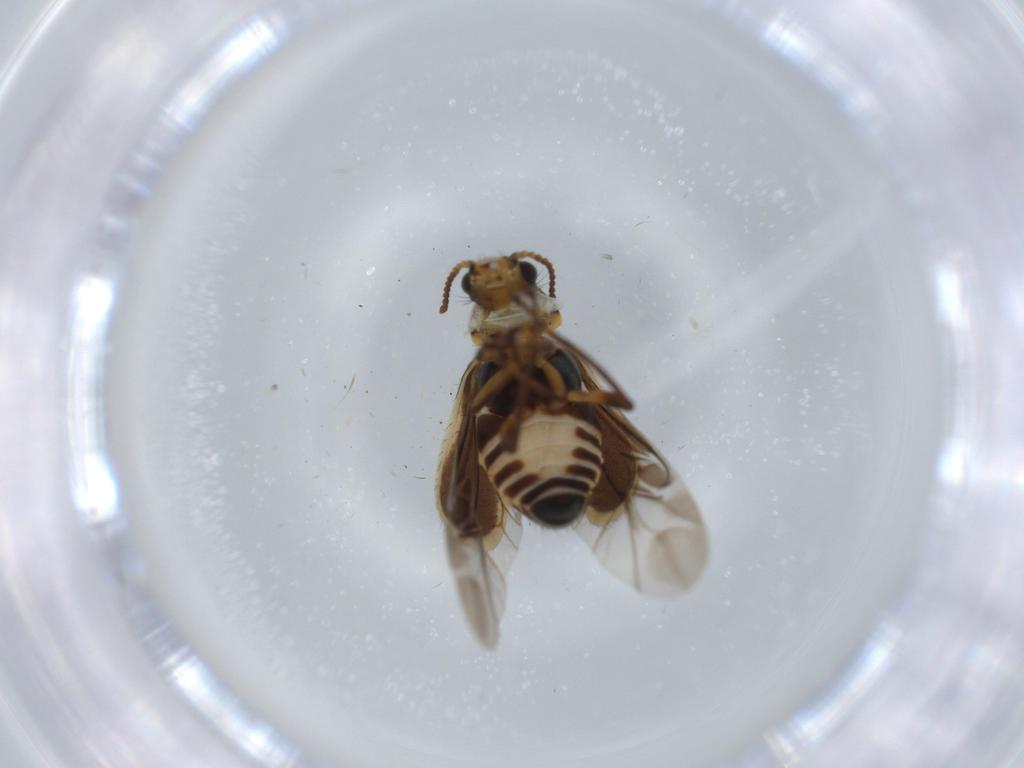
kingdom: Animalia
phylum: Arthropoda
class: Insecta
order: Coleoptera
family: Melyridae
